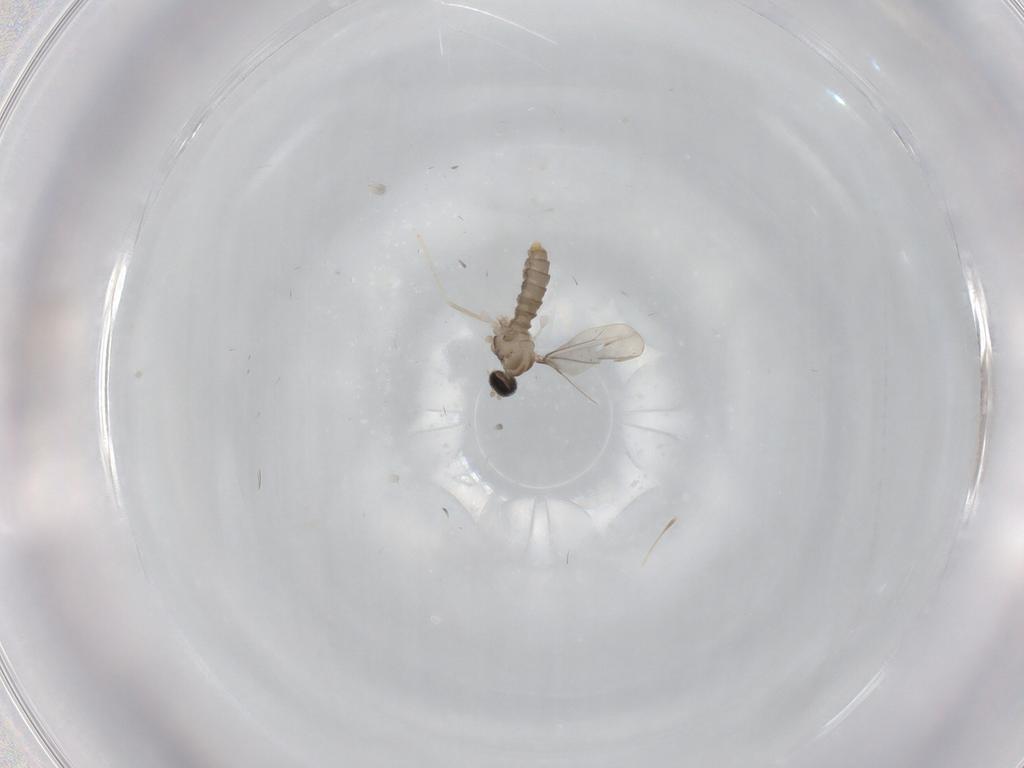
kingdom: Animalia
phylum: Arthropoda
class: Insecta
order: Diptera
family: Cecidomyiidae
